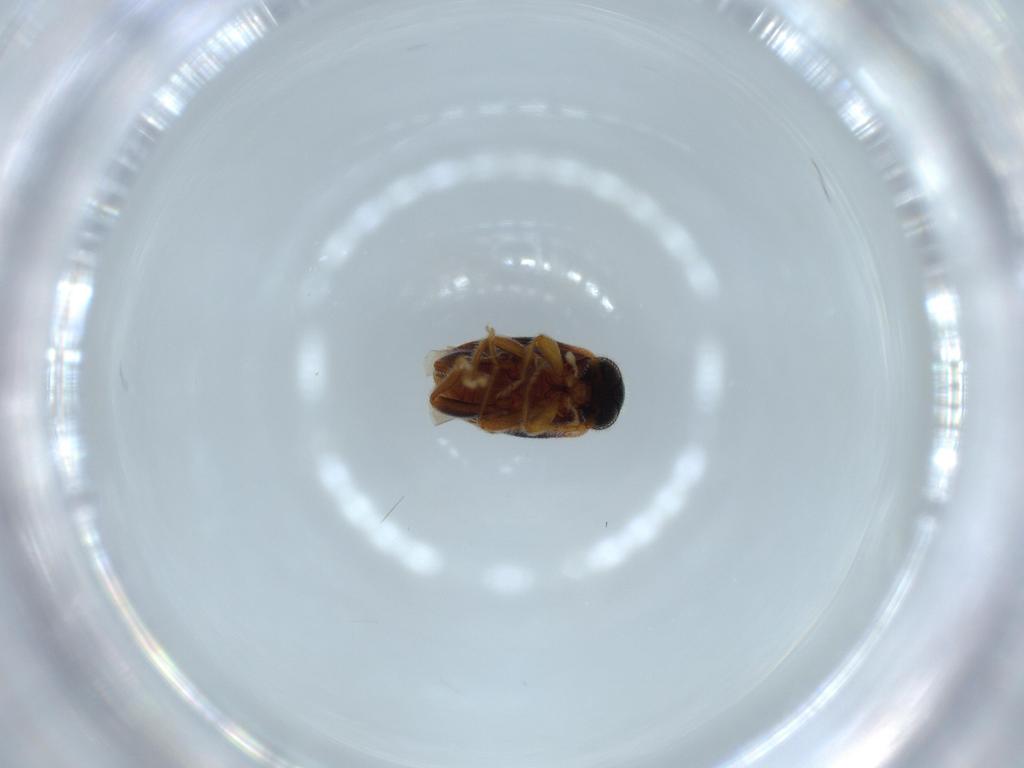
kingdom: Animalia
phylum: Arthropoda
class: Insecta
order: Coleoptera
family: Aderidae
